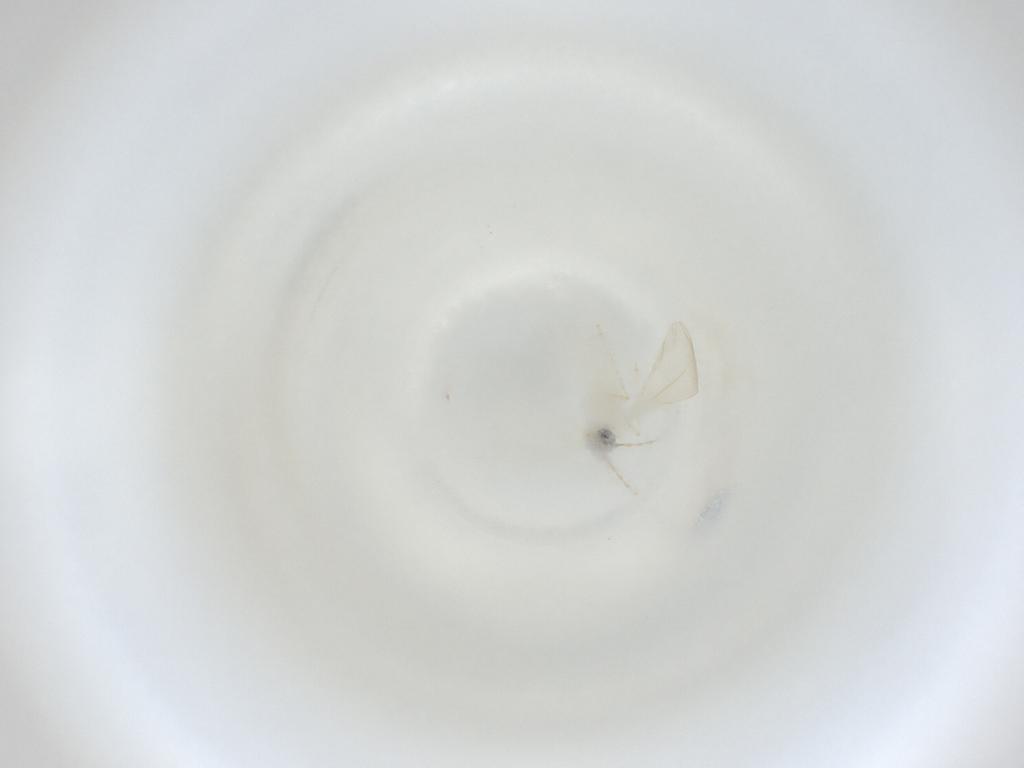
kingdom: Animalia
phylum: Arthropoda
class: Insecta
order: Diptera
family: Cecidomyiidae
